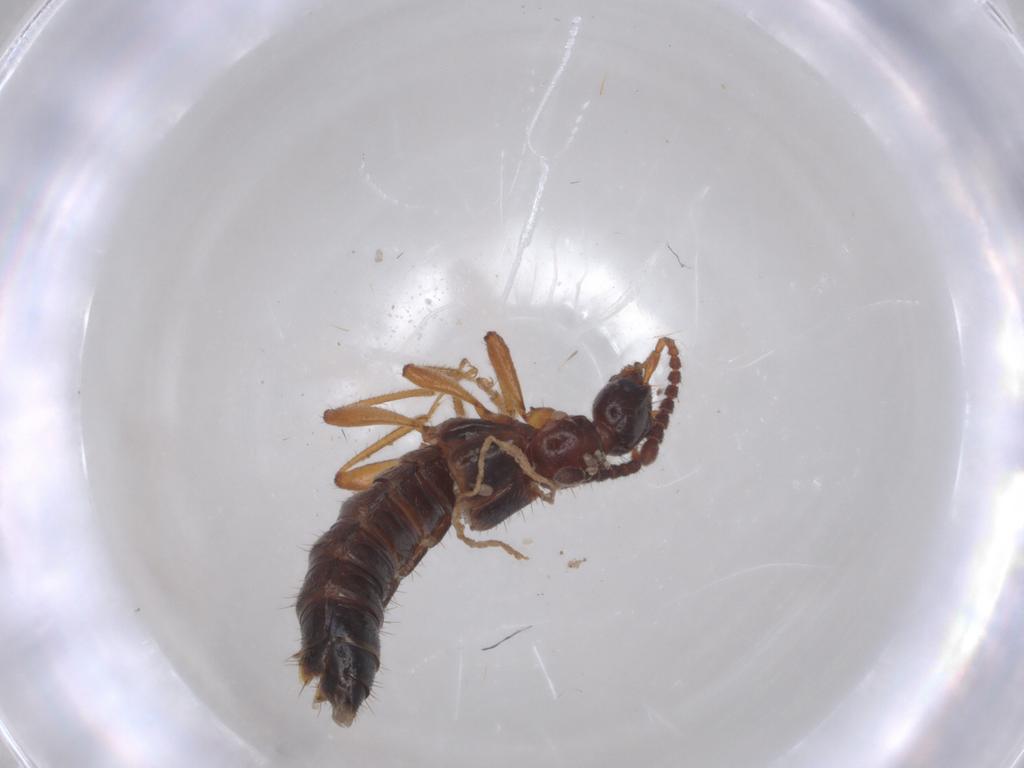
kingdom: Animalia
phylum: Arthropoda
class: Insecta
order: Coleoptera
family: Staphylinidae
